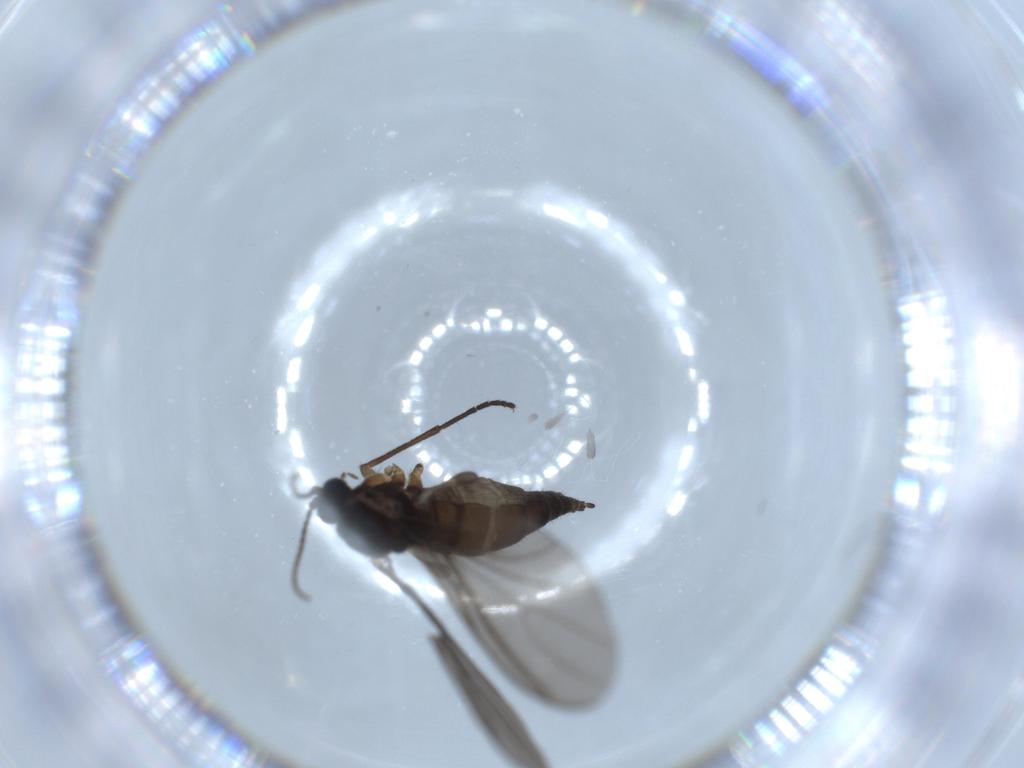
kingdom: Animalia
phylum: Arthropoda
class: Insecta
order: Diptera
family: Sciaridae
